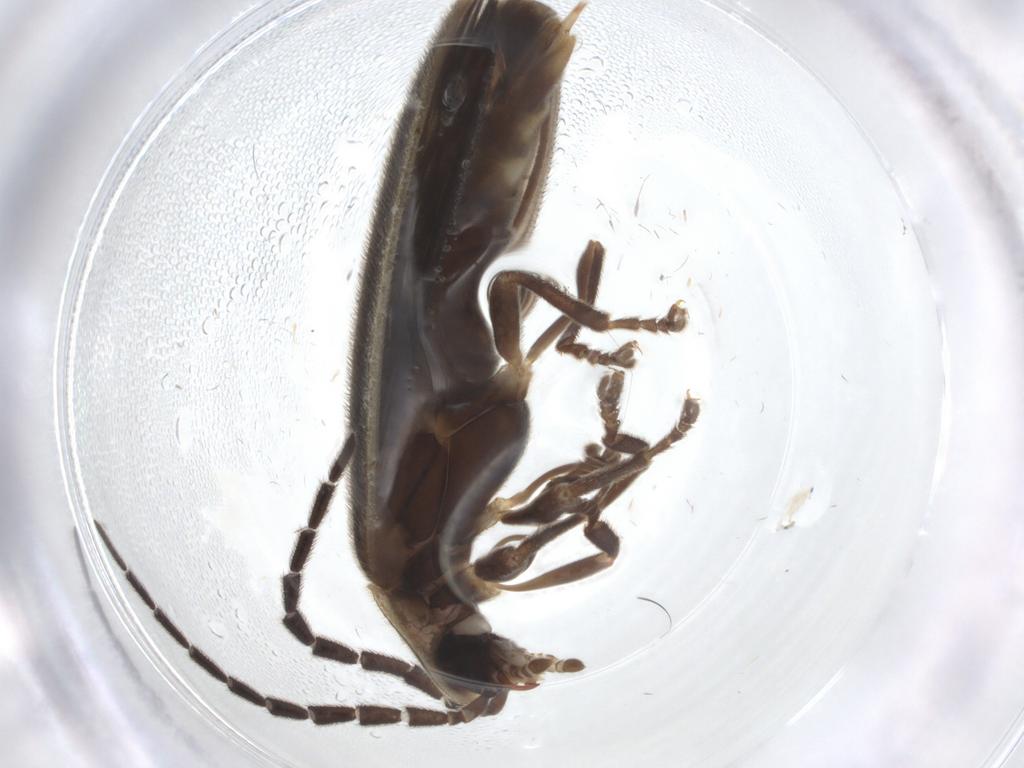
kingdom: Animalia
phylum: Arthropoda
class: Insecta
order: Coleoptera
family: Lampyridae
